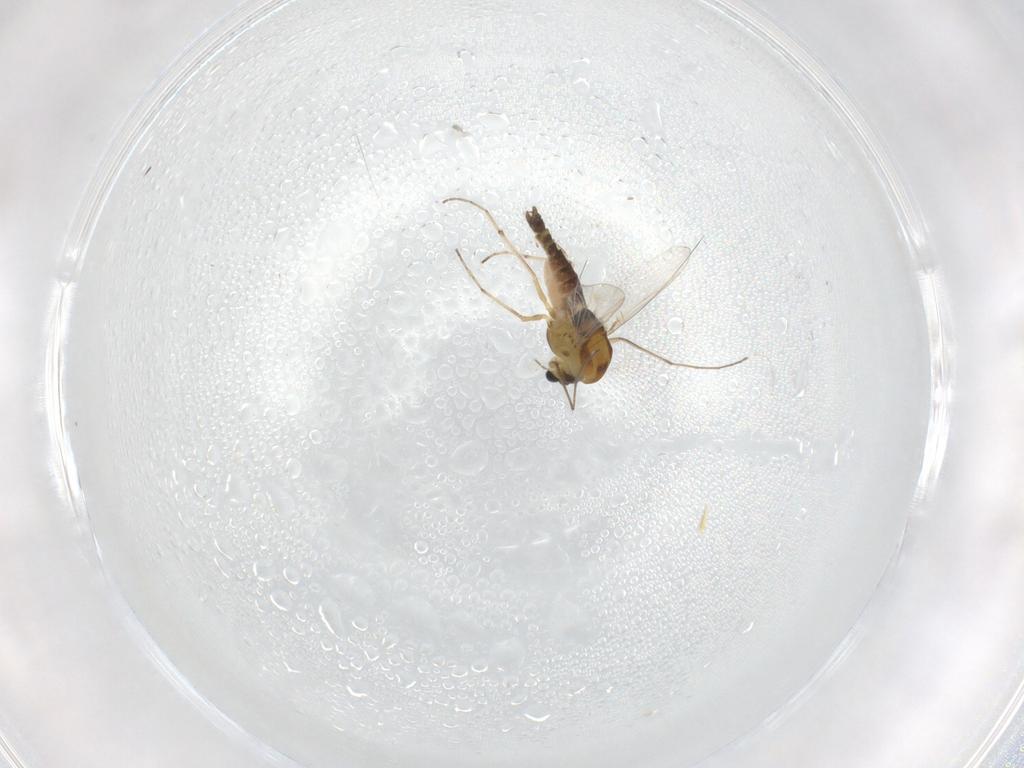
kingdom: Animalia
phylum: Arthropoda
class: Insecta
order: Diptera
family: Chironomidae
